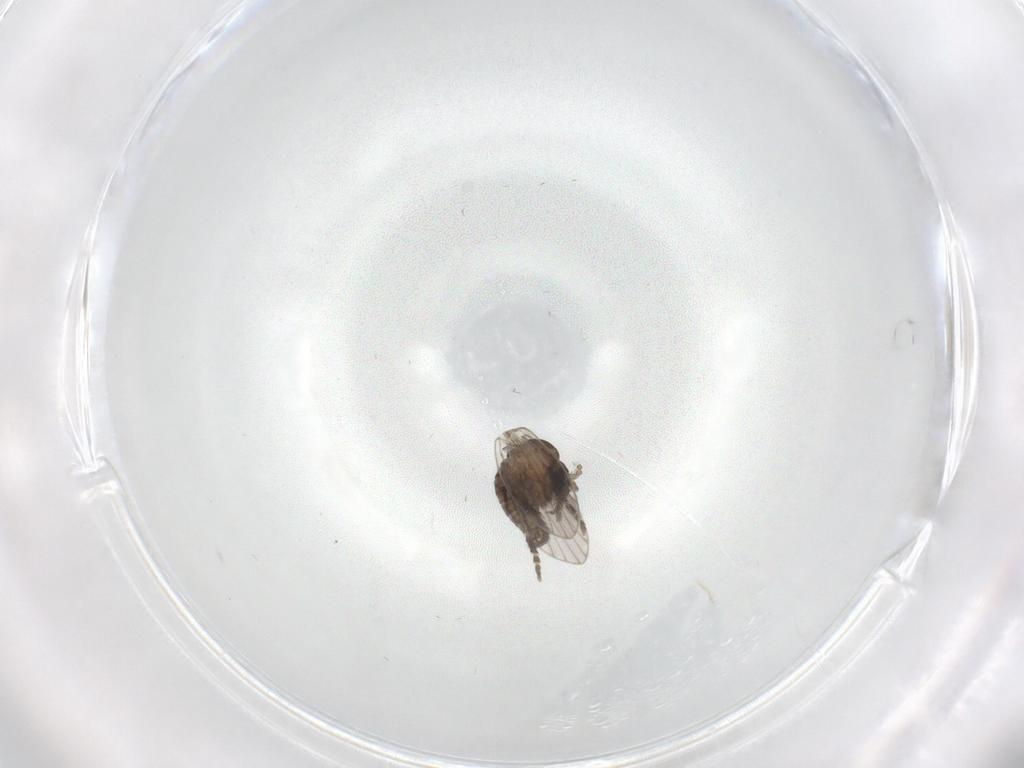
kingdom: Animalia
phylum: Arthropoda
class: Insecta
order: Diptera
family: Psychodidae
